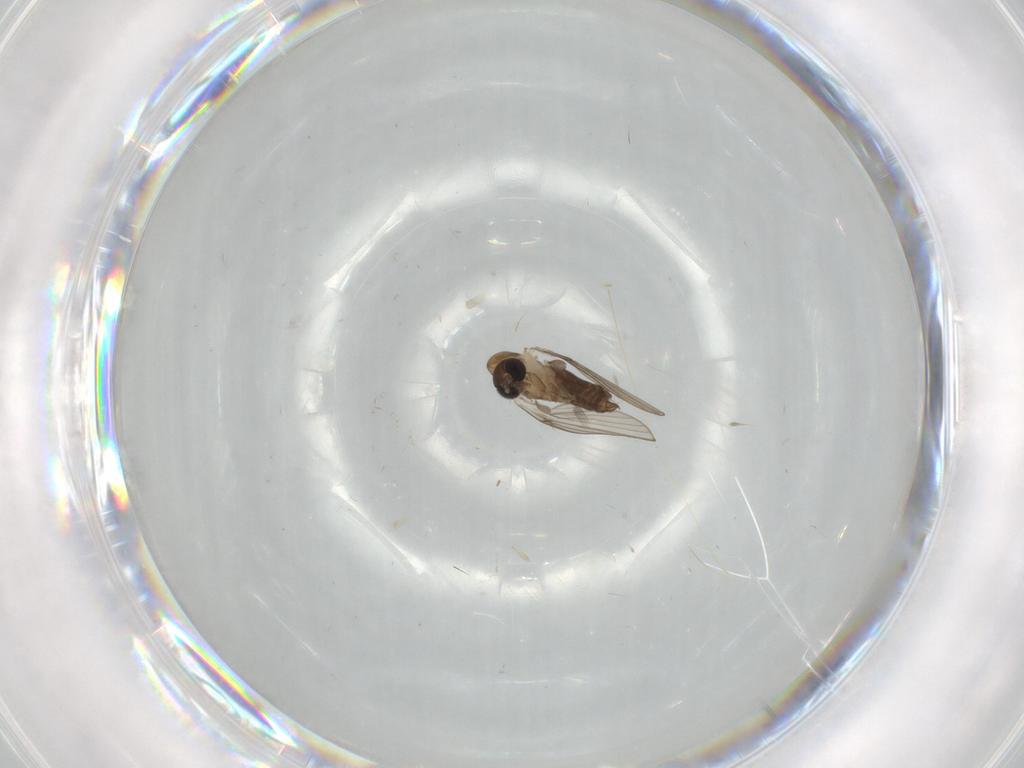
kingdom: Animalia
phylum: Arthropoda
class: Insecta
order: Diptera
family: Psychodidae
